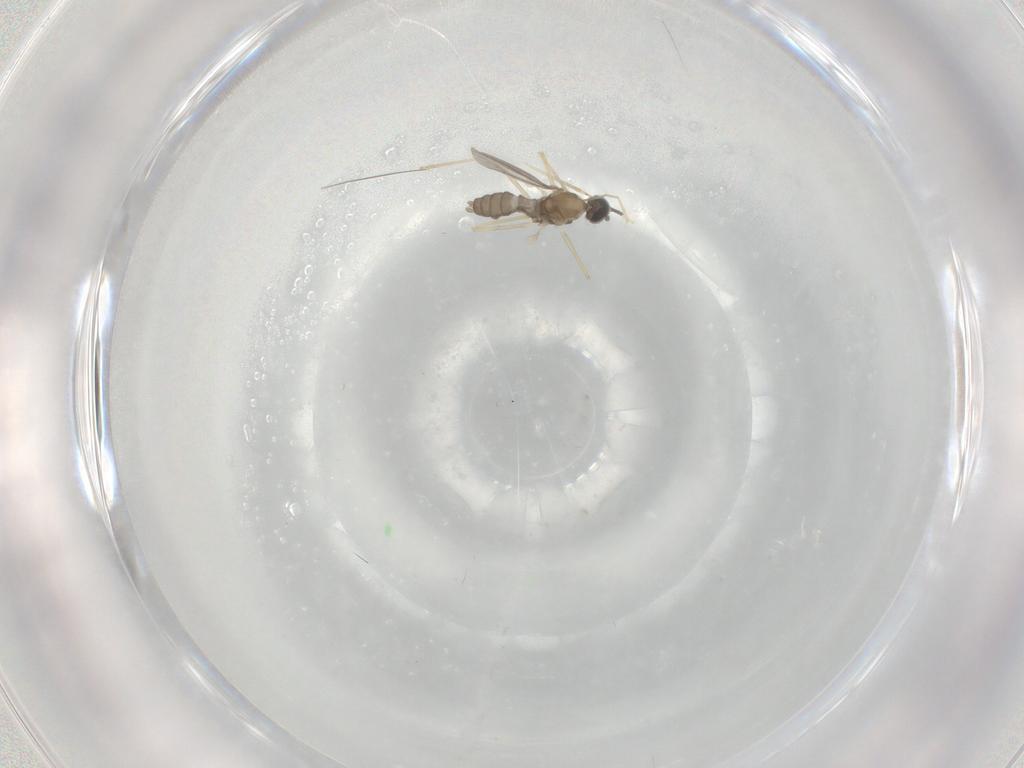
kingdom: Animalia
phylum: Arthropoda
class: Insecta
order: Diptera
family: Cecidomyiidae
